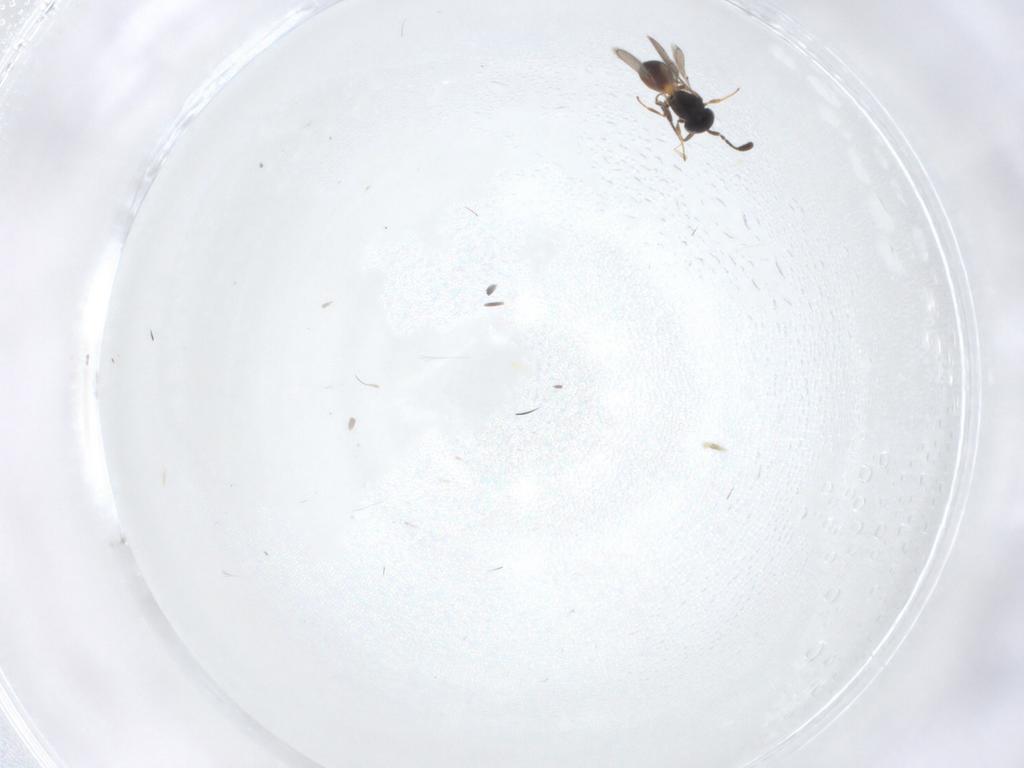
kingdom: Animalia
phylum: Arthropoda
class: Insecta
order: Hymenoptera
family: Scelionidae
